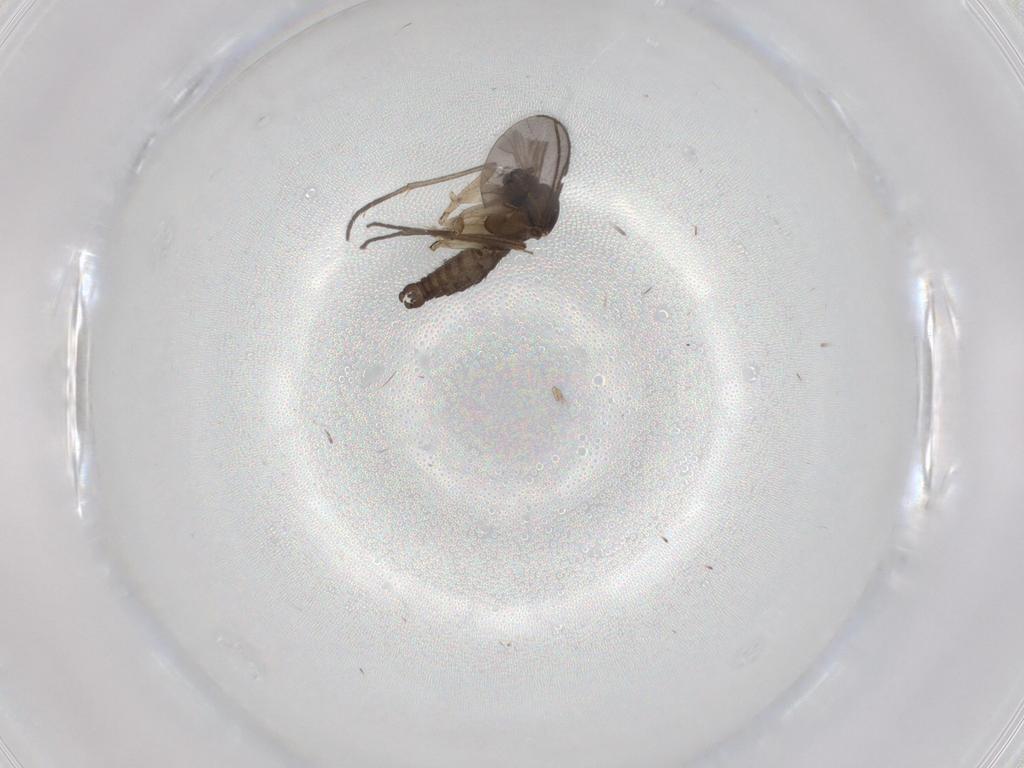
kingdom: Animalia
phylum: Arthropoda
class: Insecta
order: Diptera
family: Sciaridae
